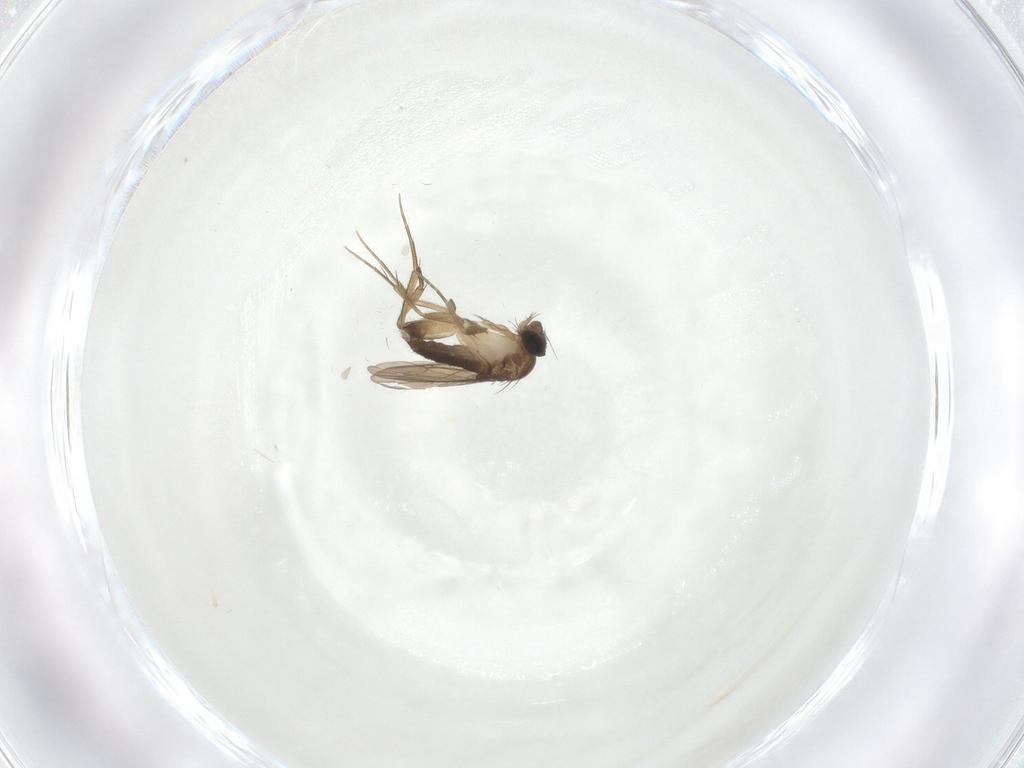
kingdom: Animalia
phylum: Arthropoda
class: Insecta
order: Diptera
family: Phoridae
